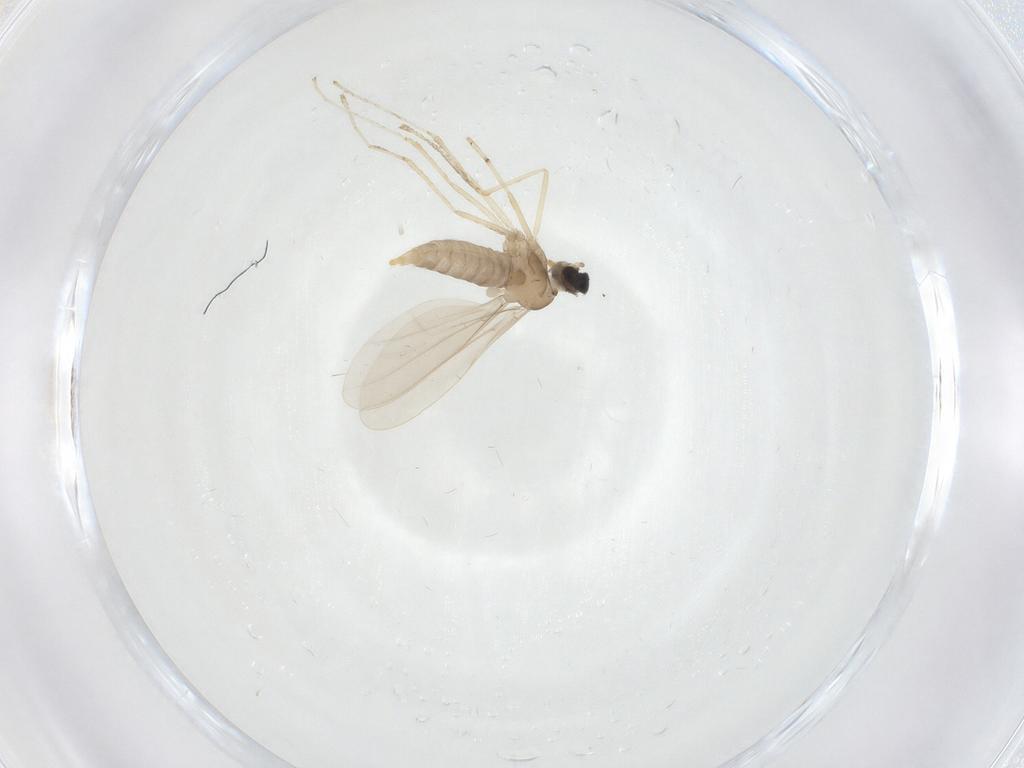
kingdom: Animalia
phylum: Arthropoda
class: Insecta
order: Diptera
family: Cecidomyiidae
